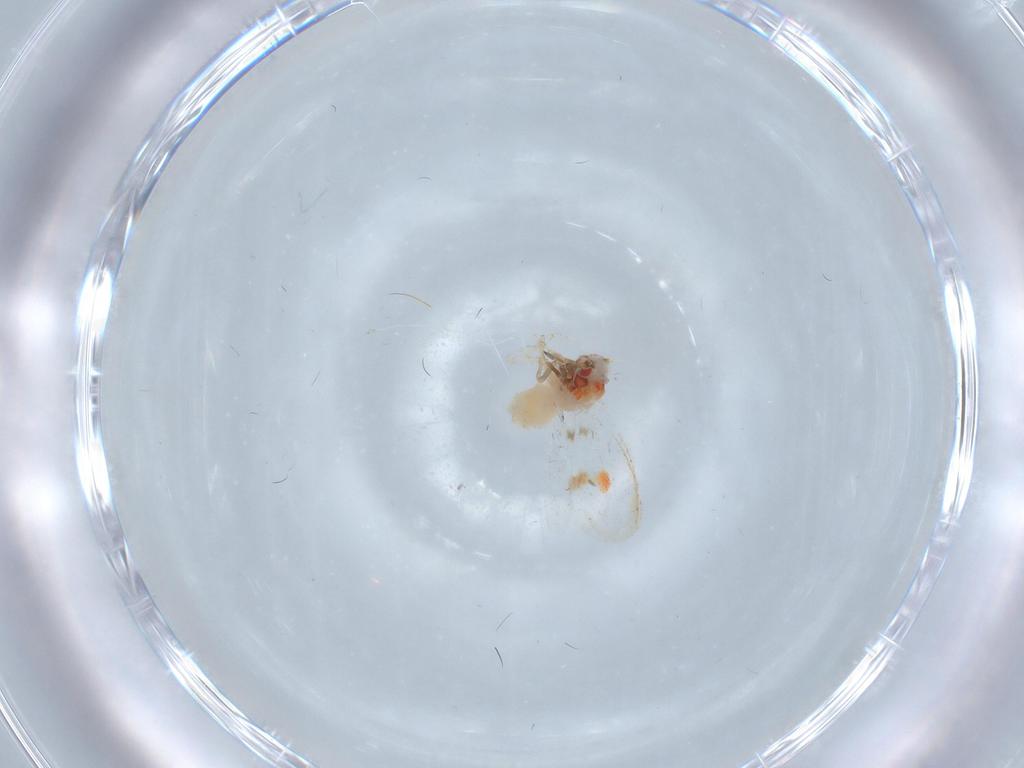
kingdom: Animalia
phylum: Arthropoda
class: Insecta
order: Hemiptera
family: Aleyrodidae
